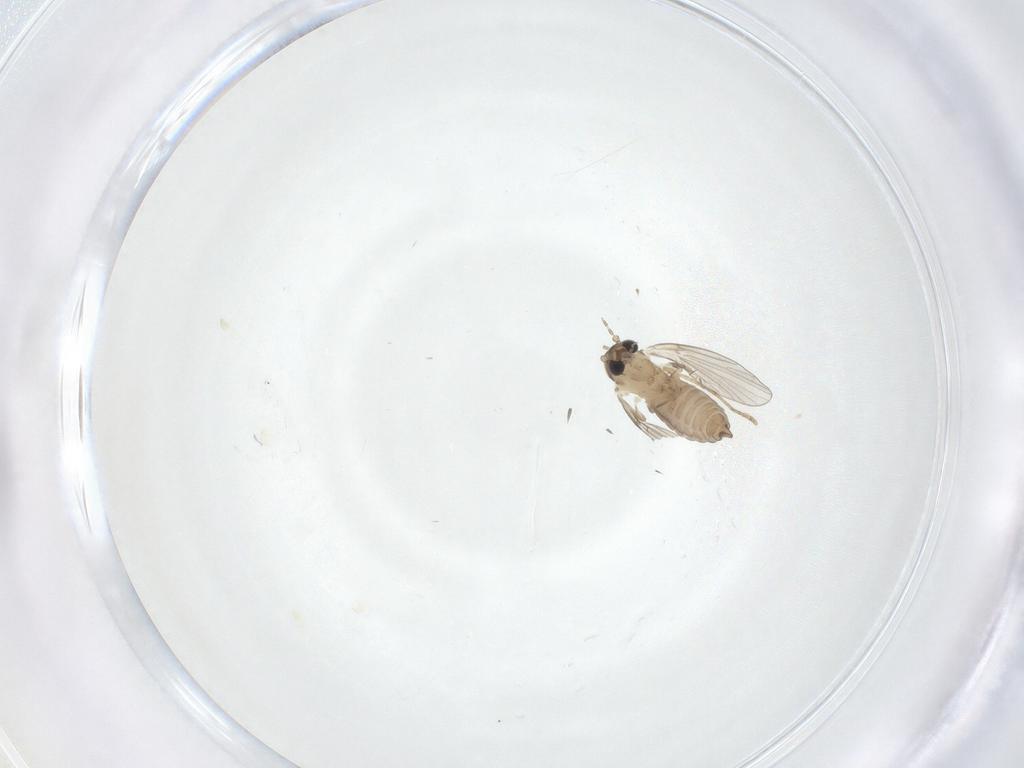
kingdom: Animalia
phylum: Arthropoda
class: Insecta
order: Diptera
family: Psychodidae
